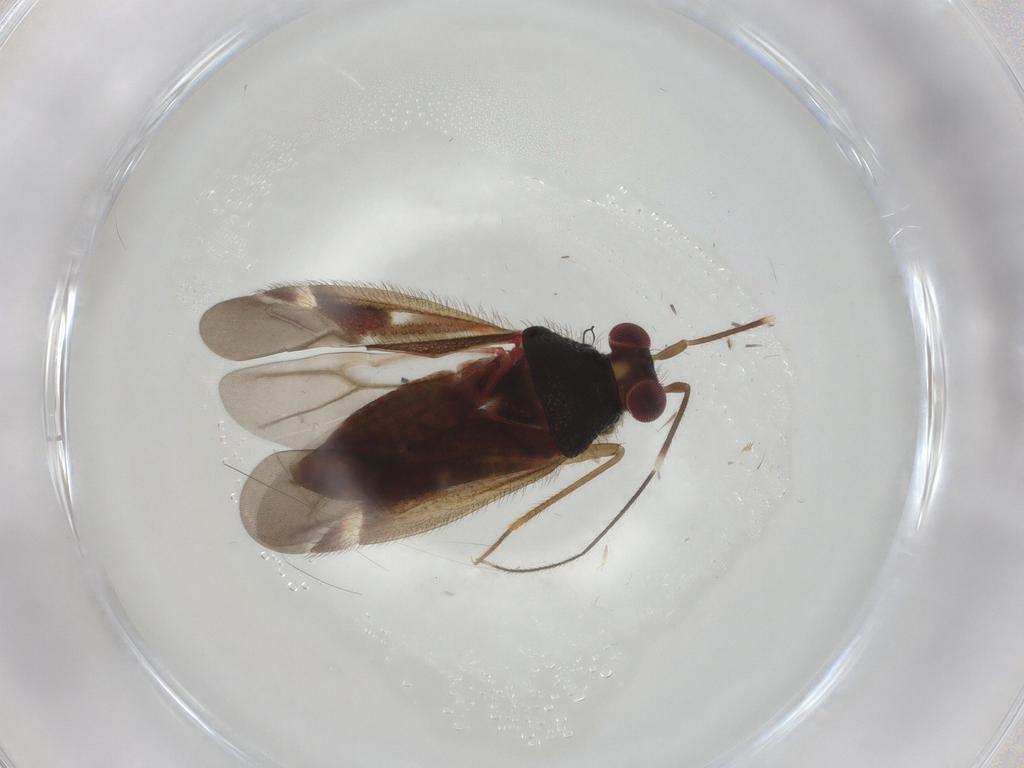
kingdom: Animalia
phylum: Arthropoda
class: Insecta
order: Hemiptera
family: Miridae
